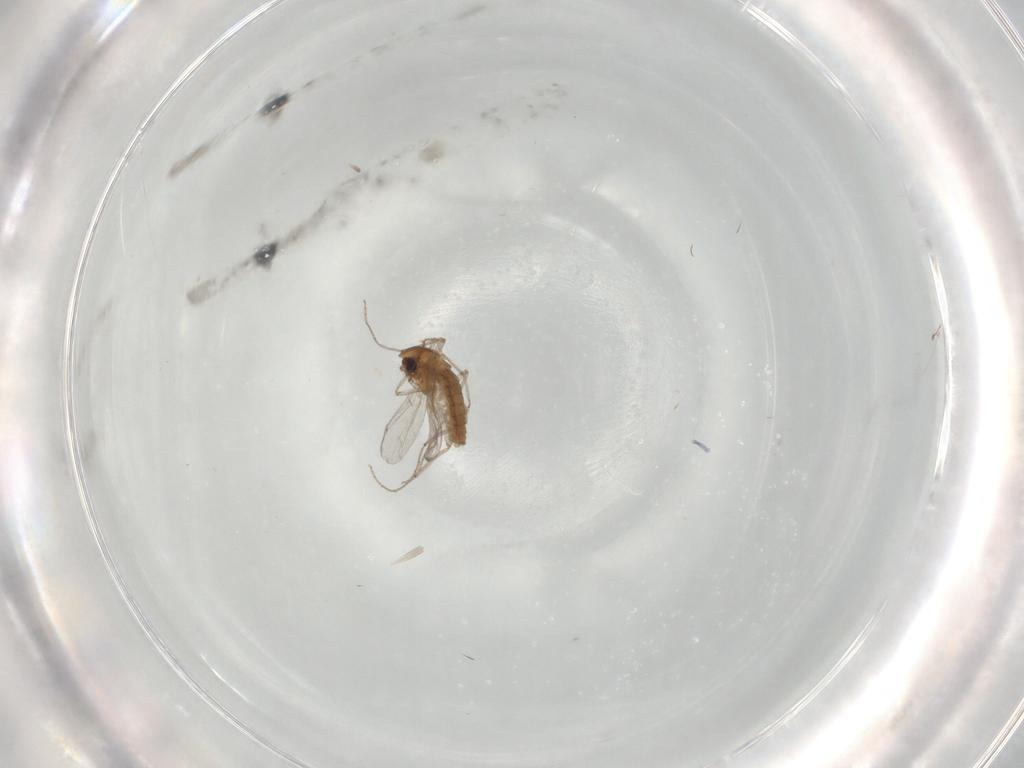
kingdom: Animalia
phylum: Arthropoda
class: Insecta
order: Diptera
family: Chironomidae
